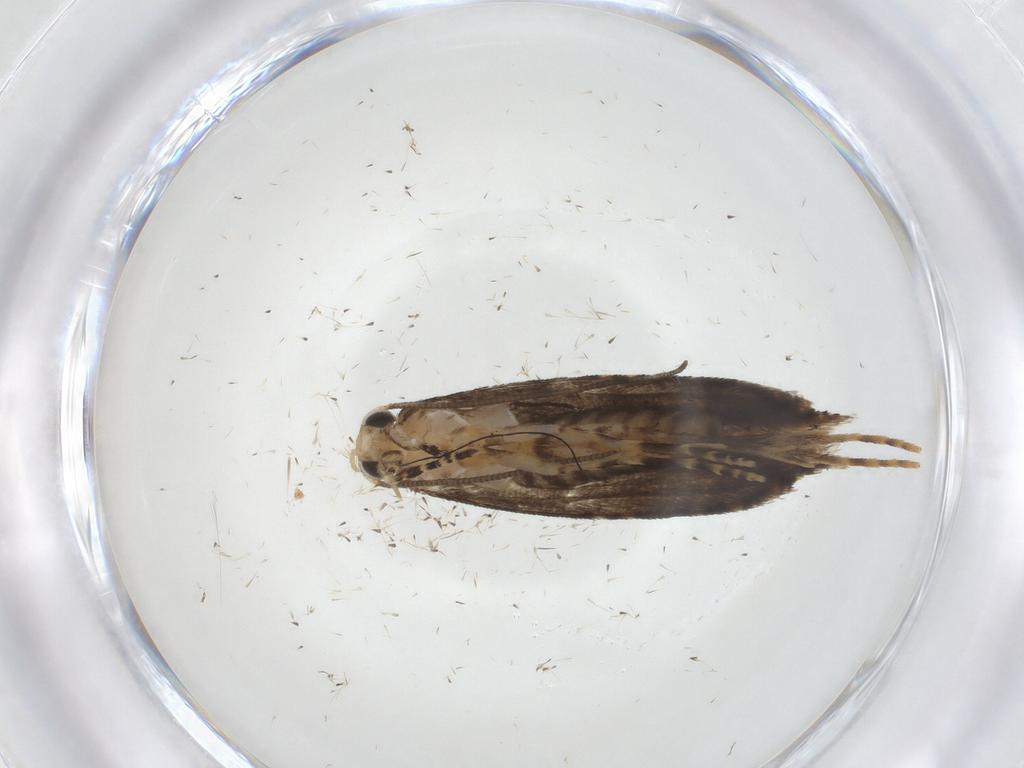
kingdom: Animalia
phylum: Arthropoda
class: Insecta
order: Lepidoptera
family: Tineidae
